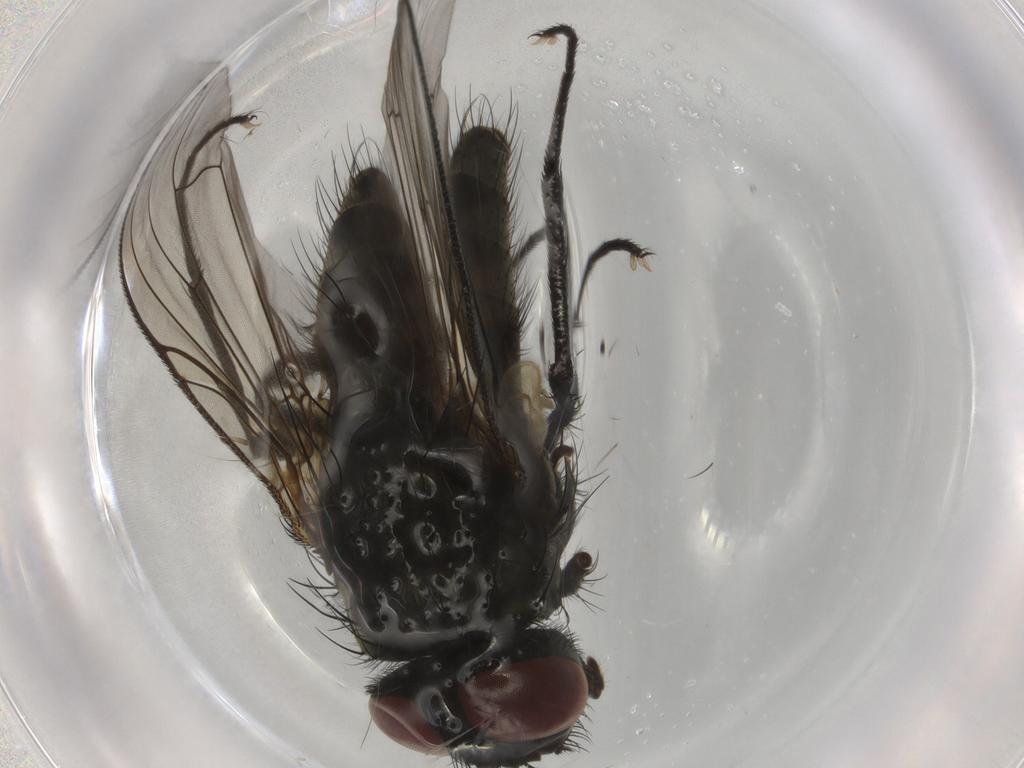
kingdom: Animalia
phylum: Arthropoda
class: Insecta
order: Diptera
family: Muscidae
